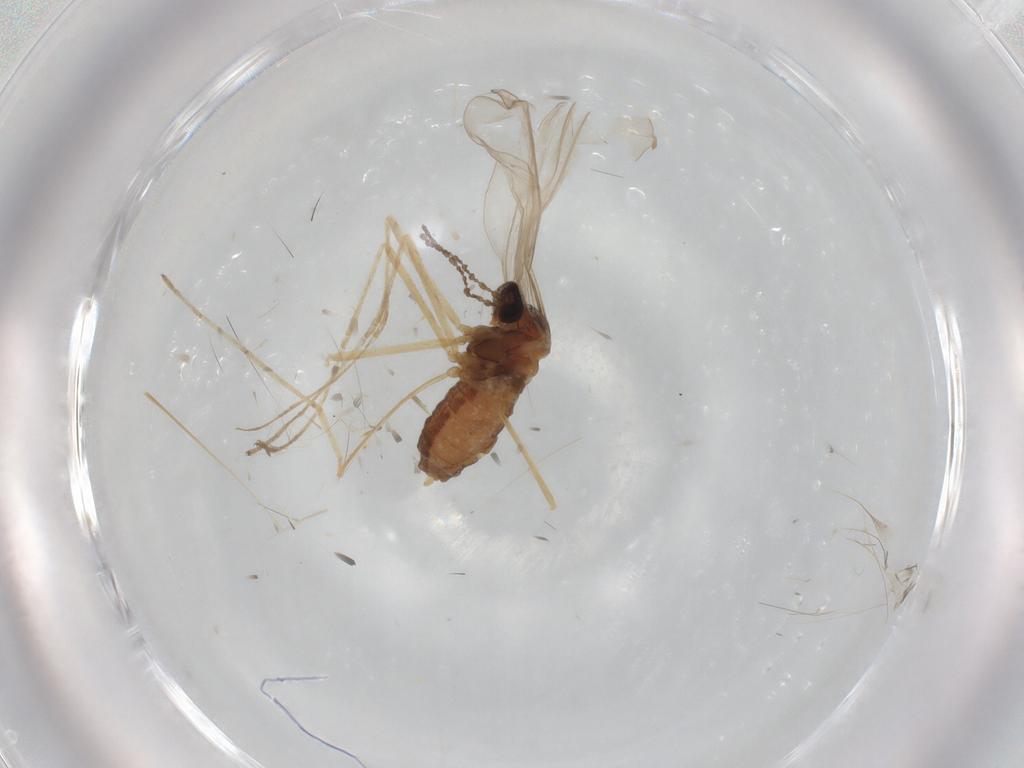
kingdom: Animalia
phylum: Arthropoda
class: Insecta
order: Diptera
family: Cecidomyiidae
